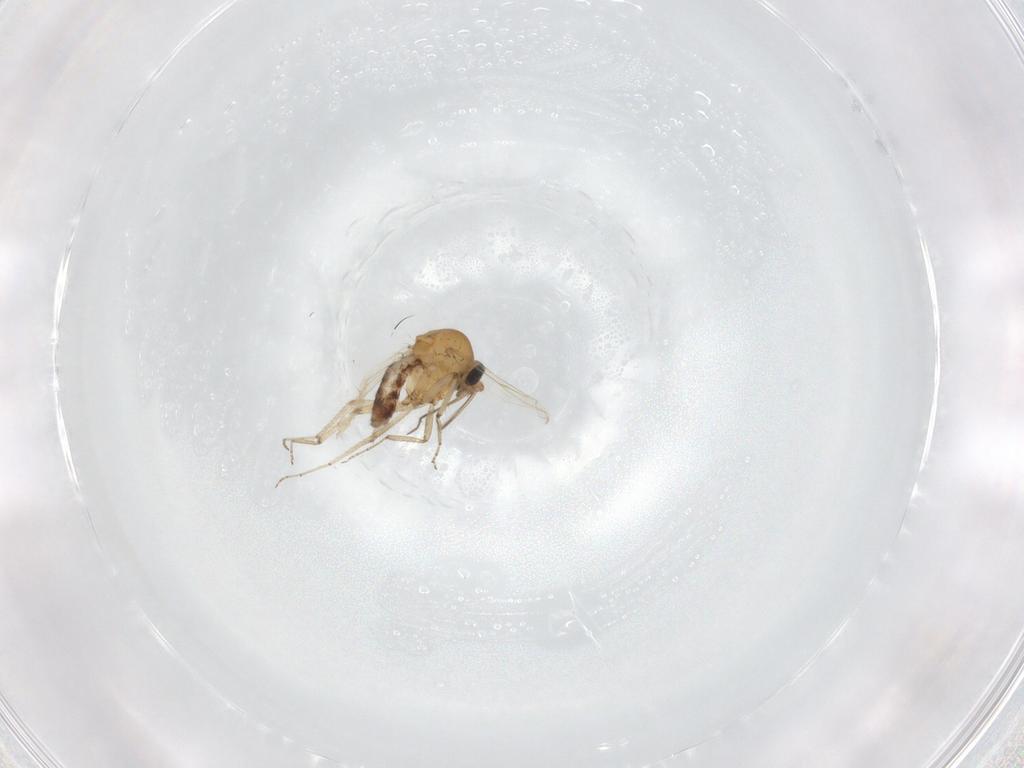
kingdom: Animalia
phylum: Arthropoda
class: Insecta
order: Diptera
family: Ceratopogonidae
